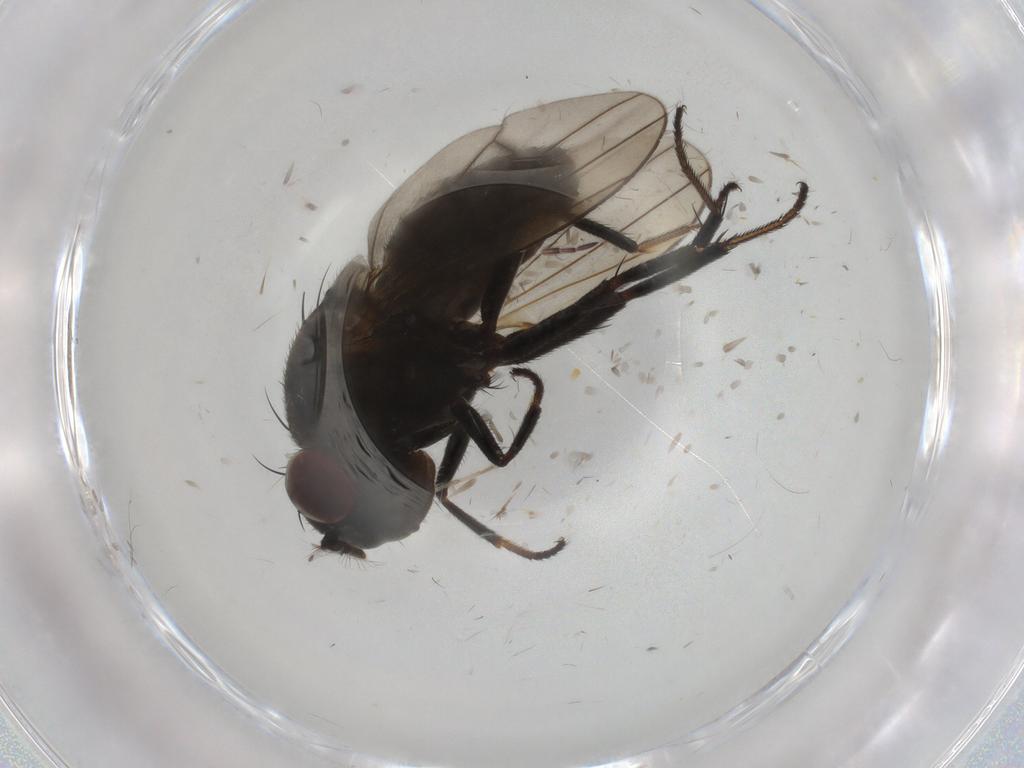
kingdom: Animalia
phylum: Arthropoda
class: Insecta
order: Diptera
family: Ephydridae
